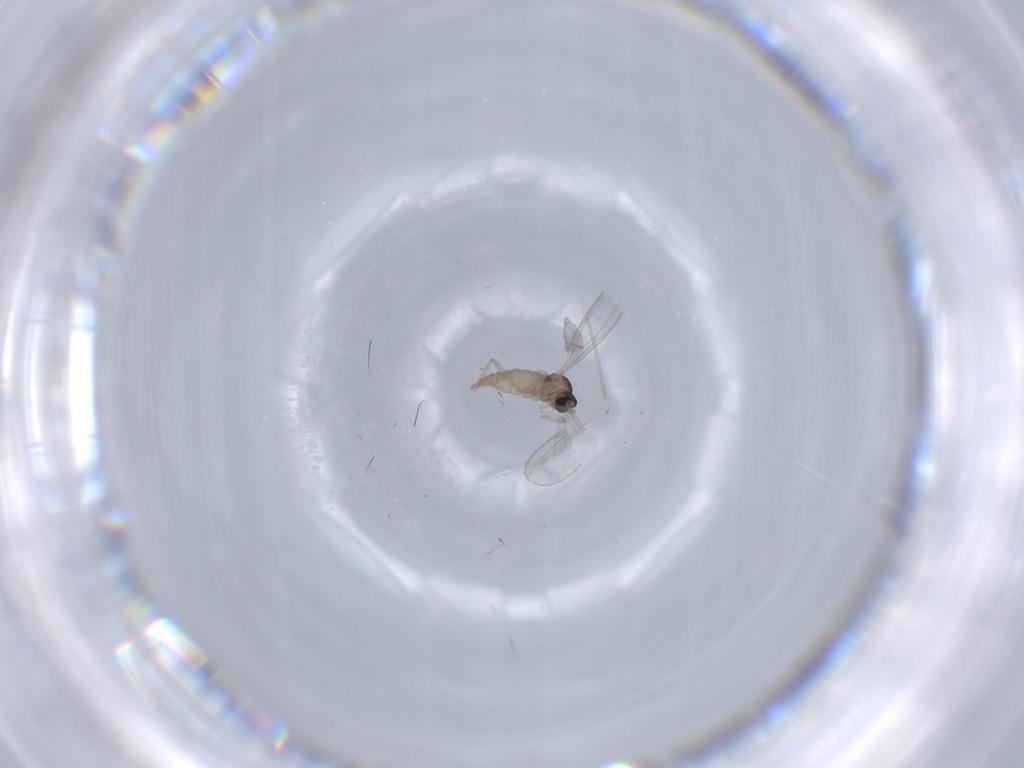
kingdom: Animalia
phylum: Arthropoda
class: Insecta
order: Diptera
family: Cecidomyiidae
